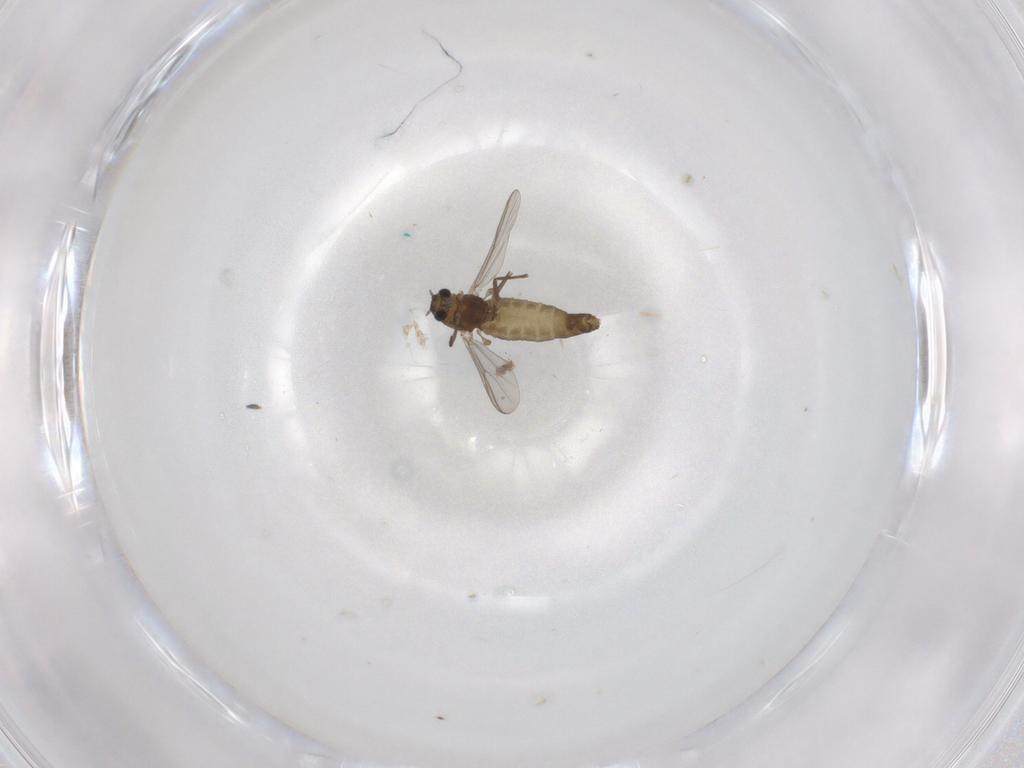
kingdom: Animalia
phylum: Arthropoda
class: Insecta
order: Diptera
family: Chironomidae
